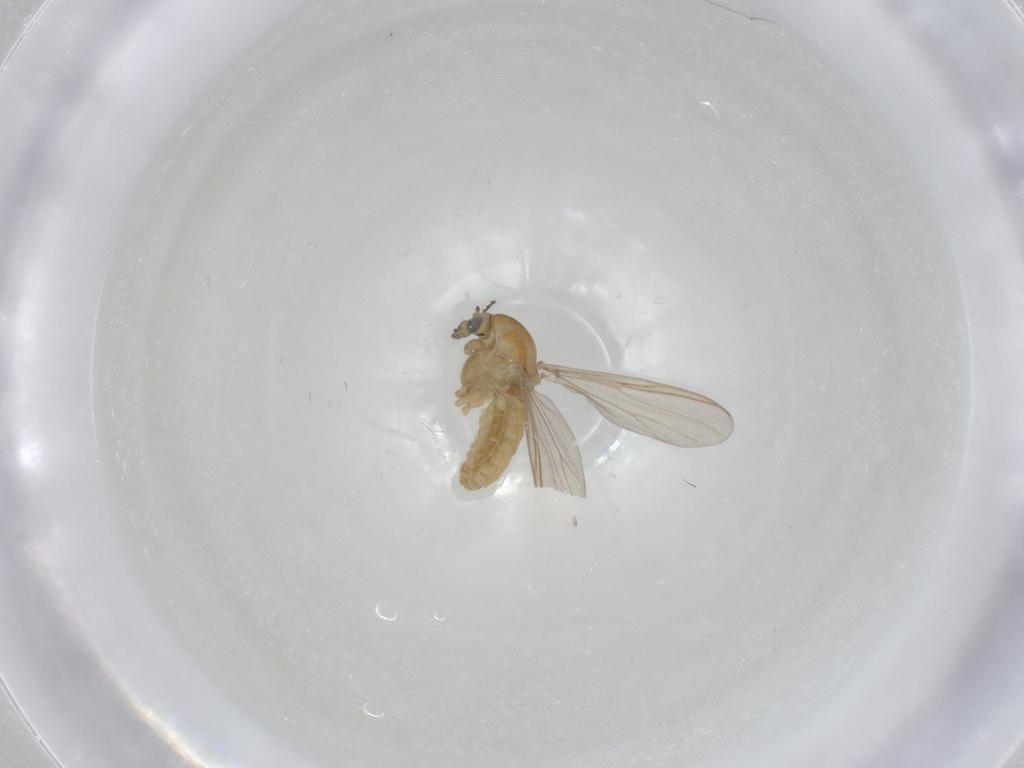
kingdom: Animalia
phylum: Arthropoda
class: Insecta
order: Diptera
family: Chironomidae
